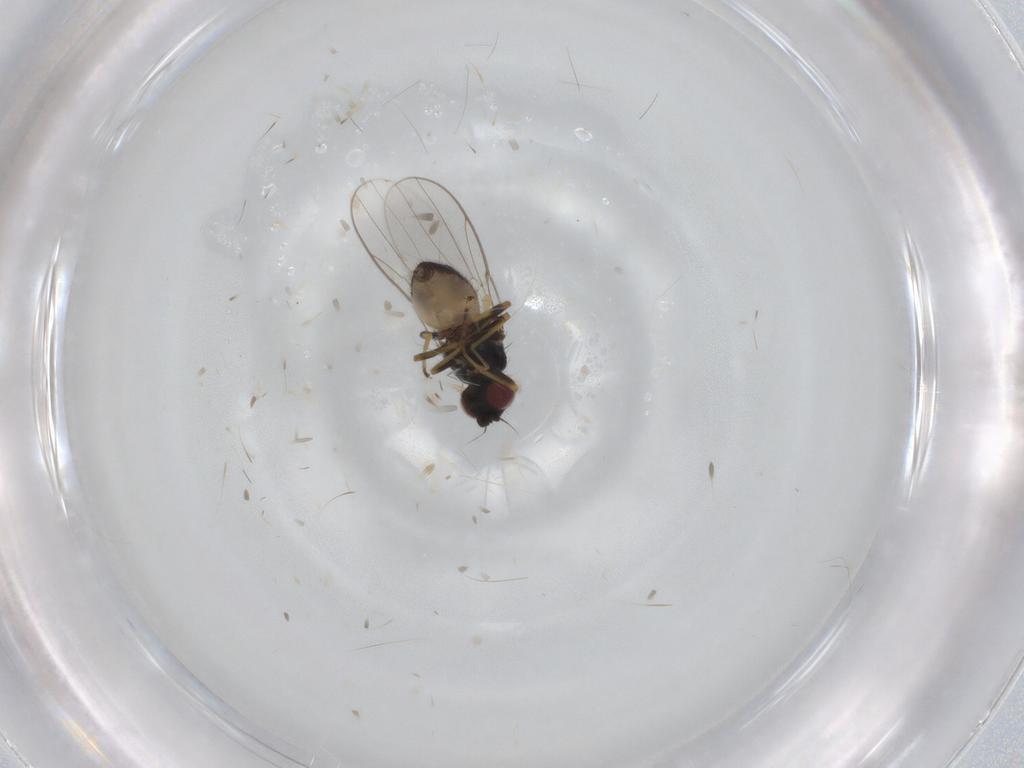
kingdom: Animalia
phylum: Arthropoda
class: Insecta
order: Diptera
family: Chloropidae
